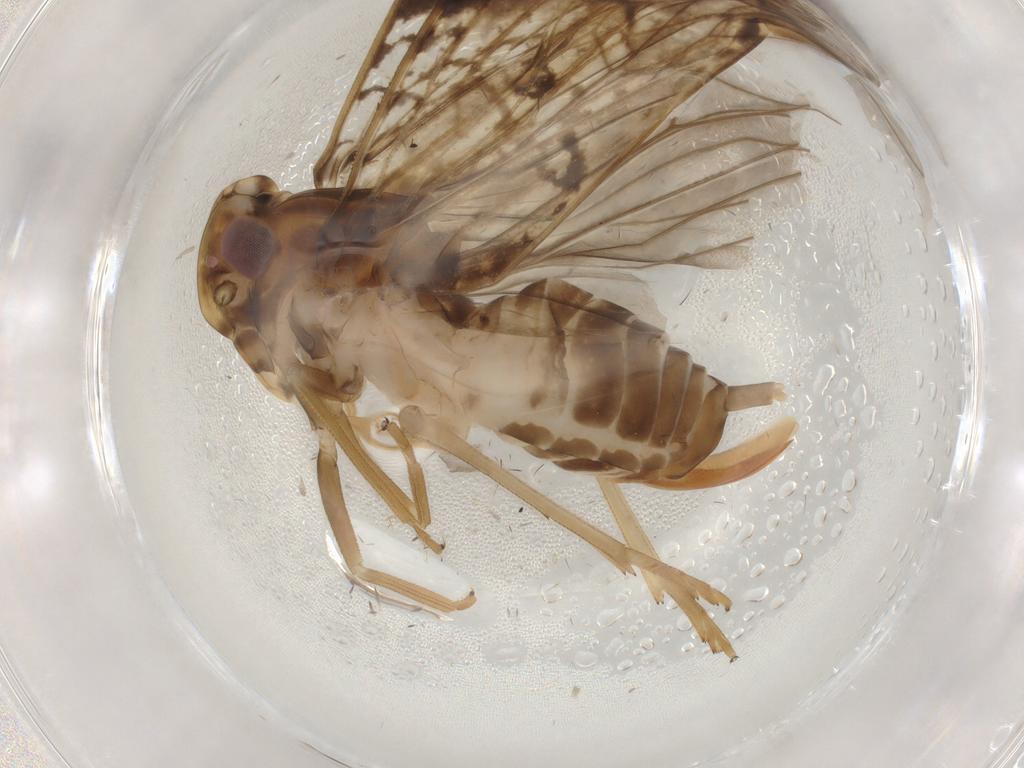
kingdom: Animalia
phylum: Arthropoda
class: Insecta
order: Hemiptera
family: Cixiidae
